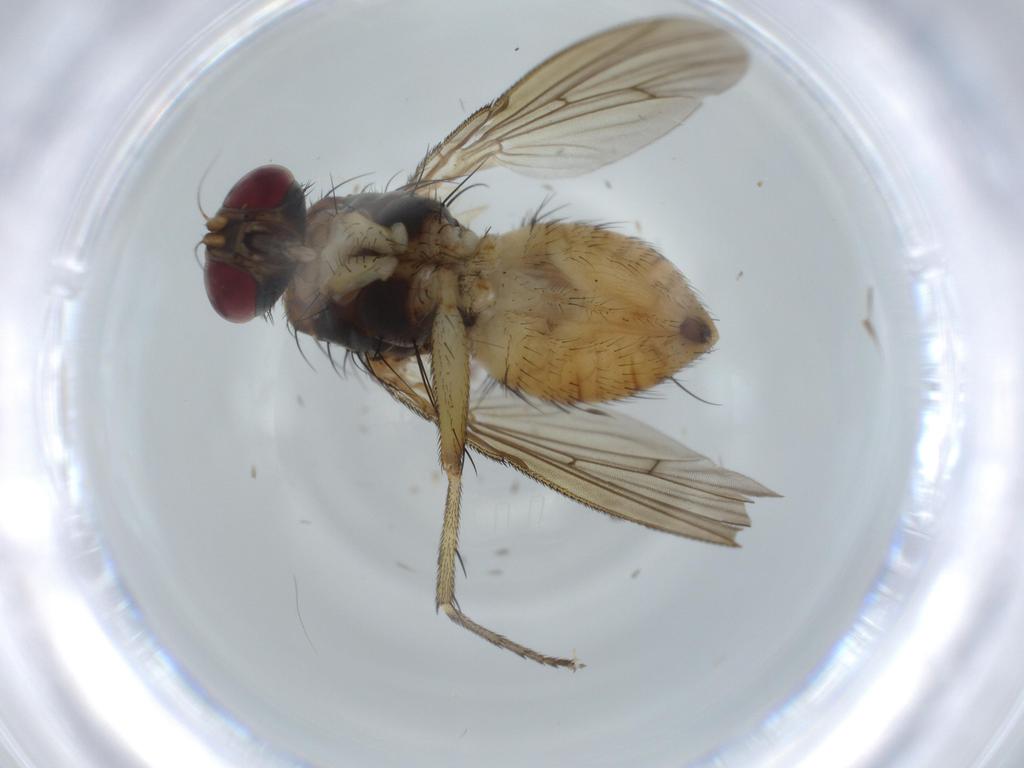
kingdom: Animalia
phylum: Arthropoda
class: Insecta
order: Diptera
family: Muscidae
